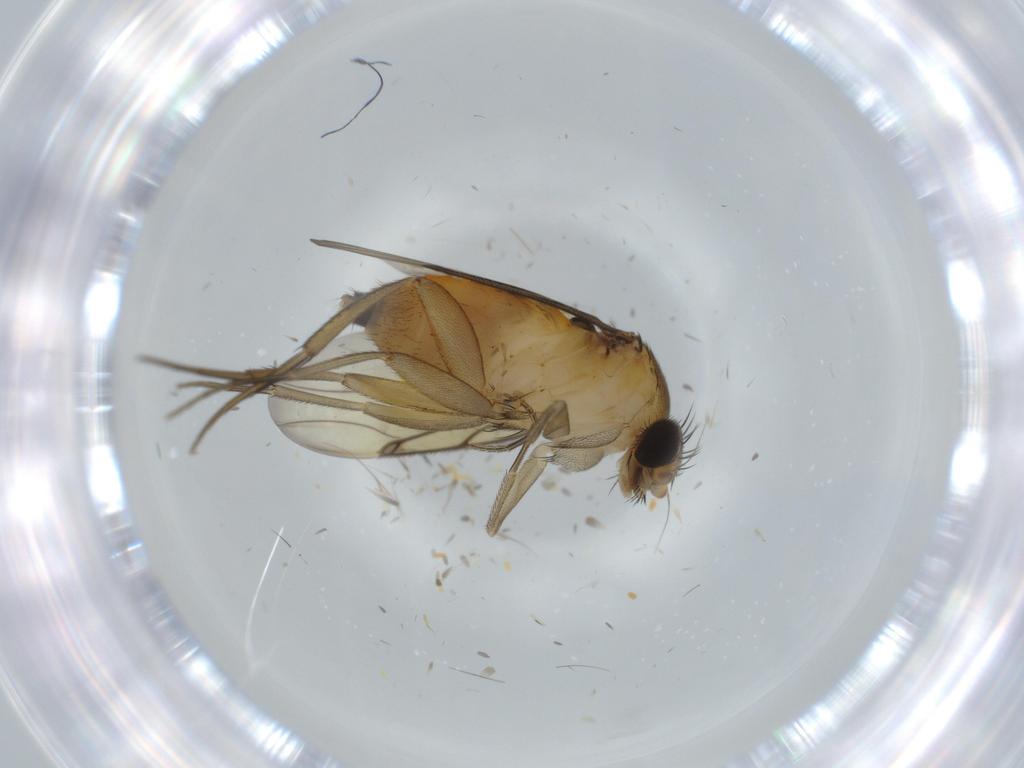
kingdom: Animalia
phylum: Arthropoda
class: Insecta
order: Diptera
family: Sciaridae
